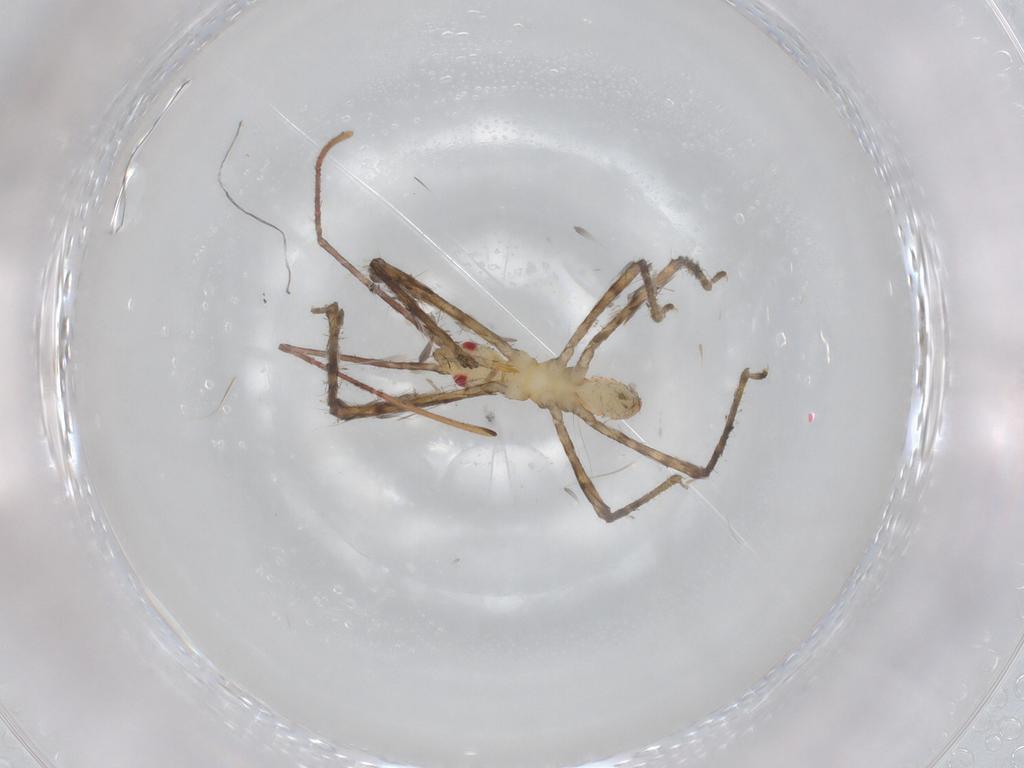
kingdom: Animalia
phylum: Arthropoda
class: Insecta
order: Hemiptera
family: Reduviidae
